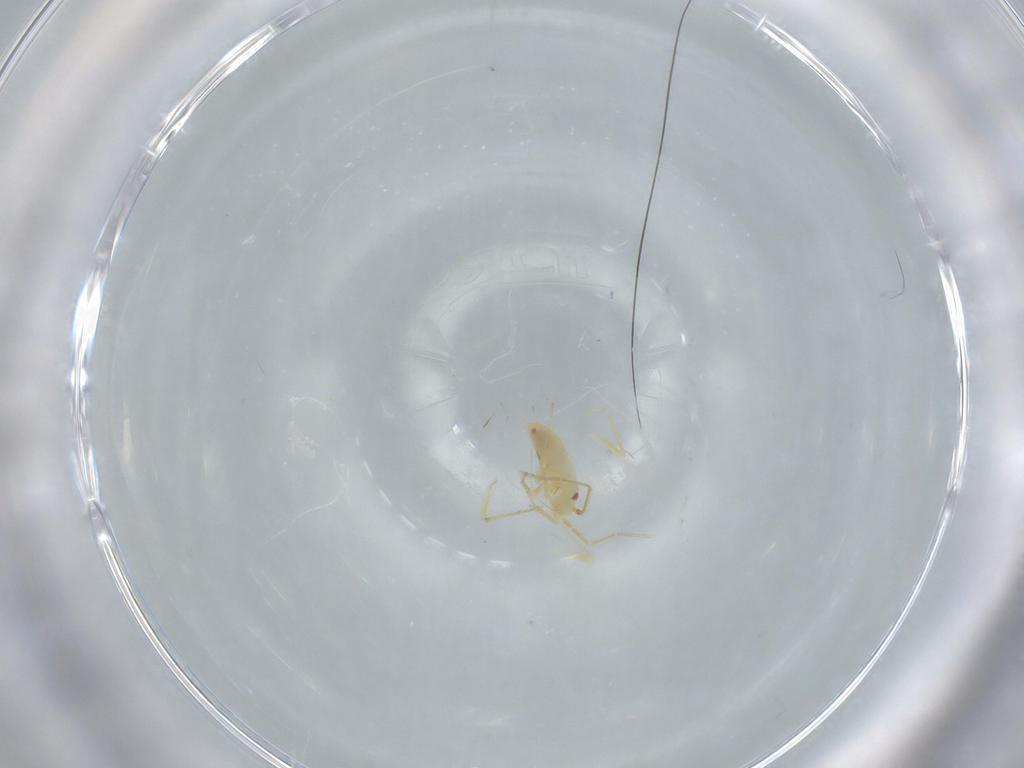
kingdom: Animalia
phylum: Arthropoda
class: Insecta
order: Hemiptera
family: Miridae
